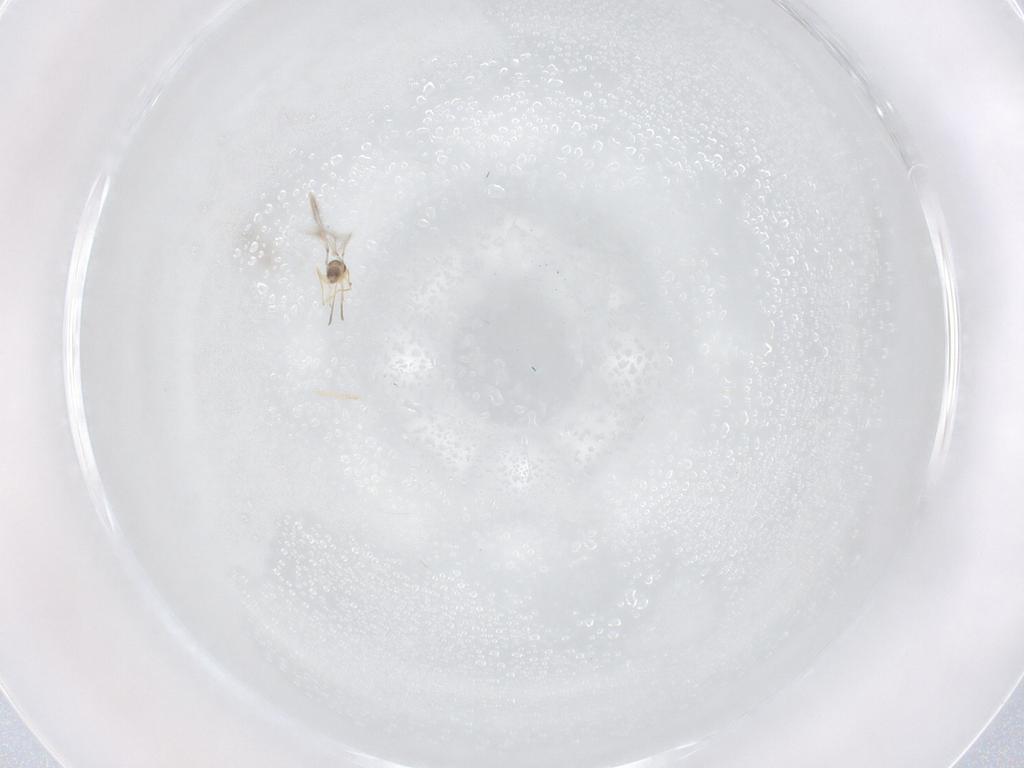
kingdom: Animalia
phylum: Arthropoda
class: Insecta
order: Hymenoptera
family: Mymaridae
